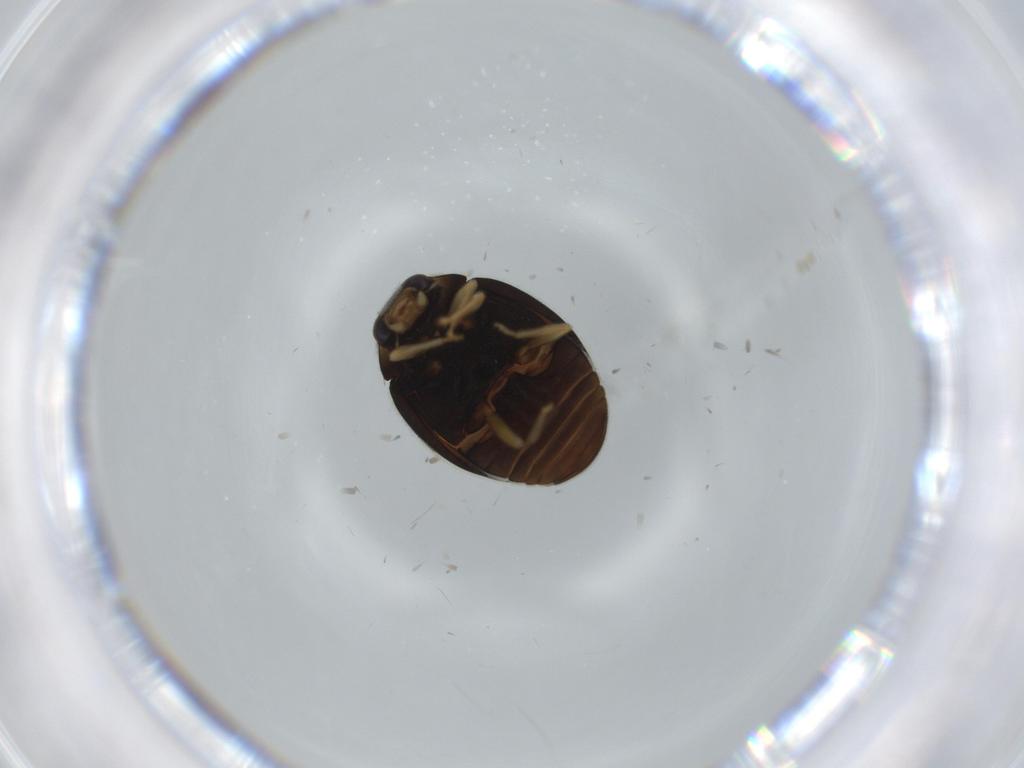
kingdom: Animalia
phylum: Arthropoda
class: Insecta
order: Coleoptera
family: Coccinellidae
